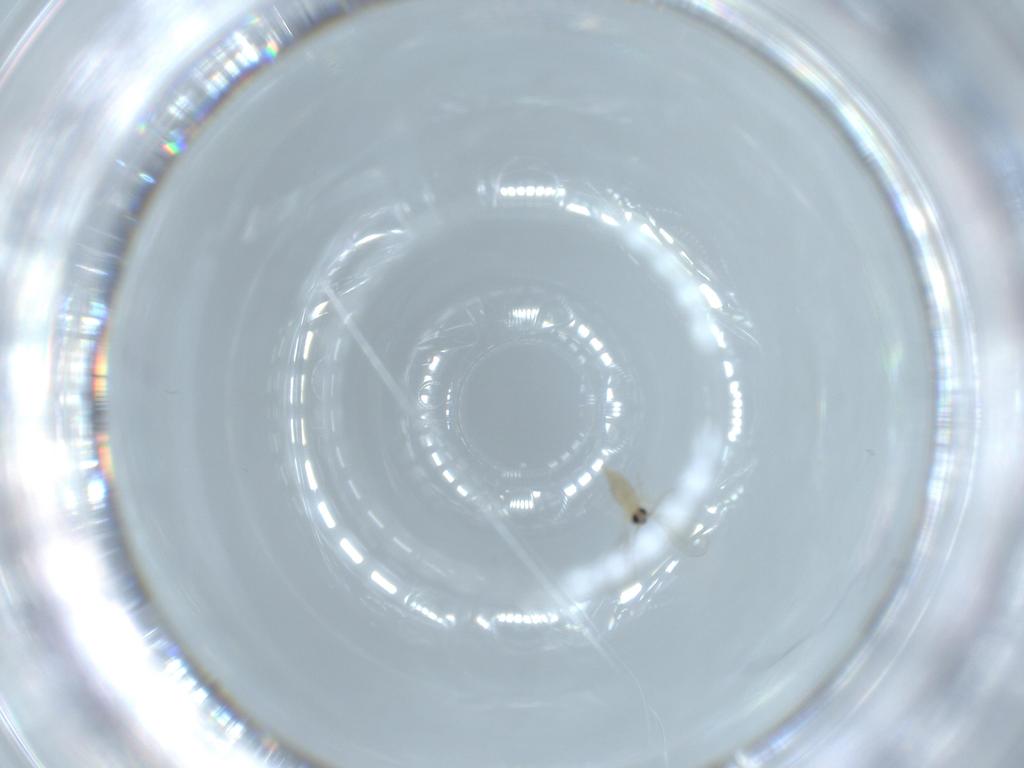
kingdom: Animalia
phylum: Arthropoda
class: Insecta
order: Diptera
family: Cecidomyiidae
